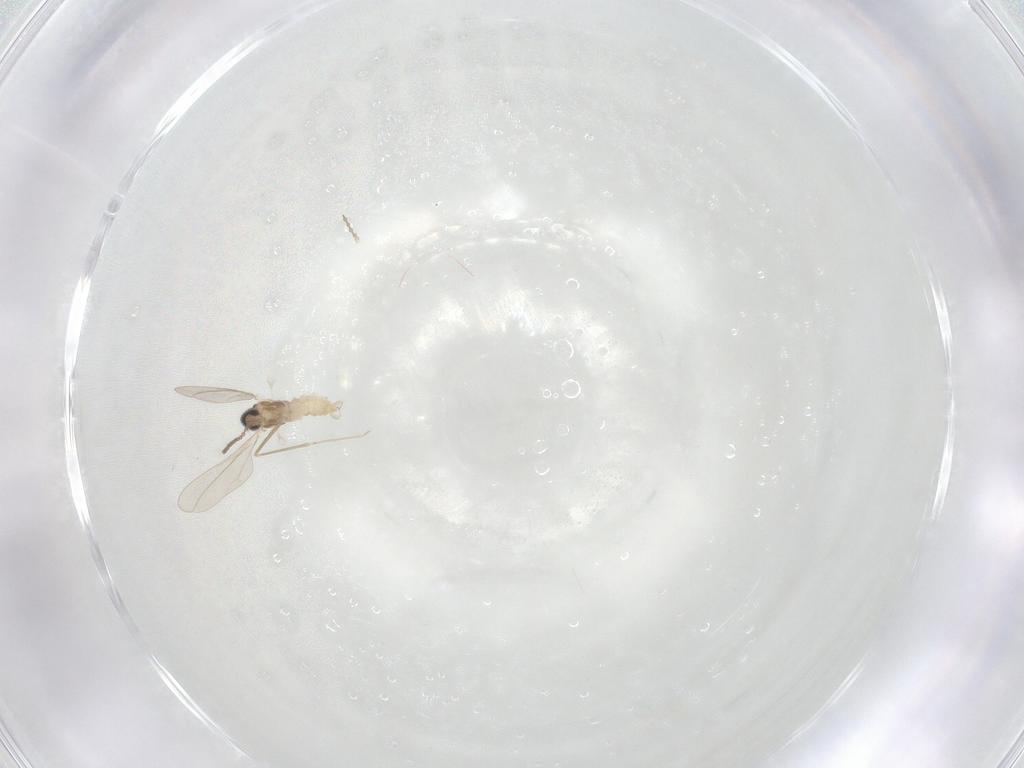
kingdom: Animalia
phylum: Arthropoda
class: Insecta
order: Diptera
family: Cecidomyiidae
